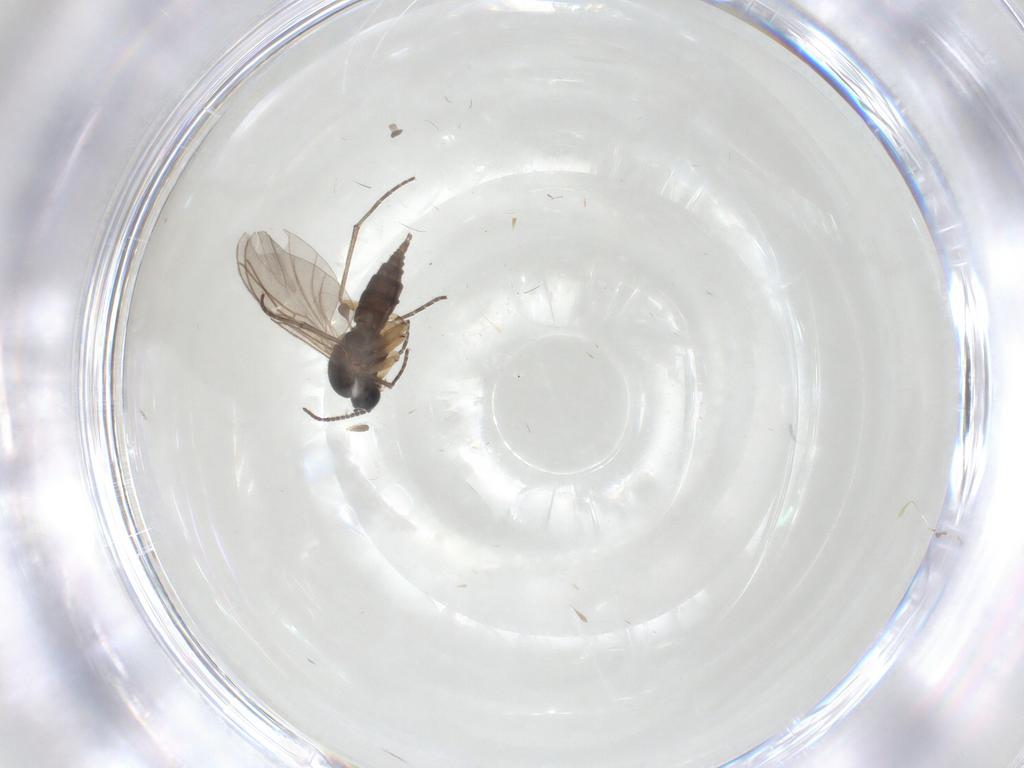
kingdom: Animalia
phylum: Arthropoda
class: Insecta
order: Diptera
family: Sciaridae
